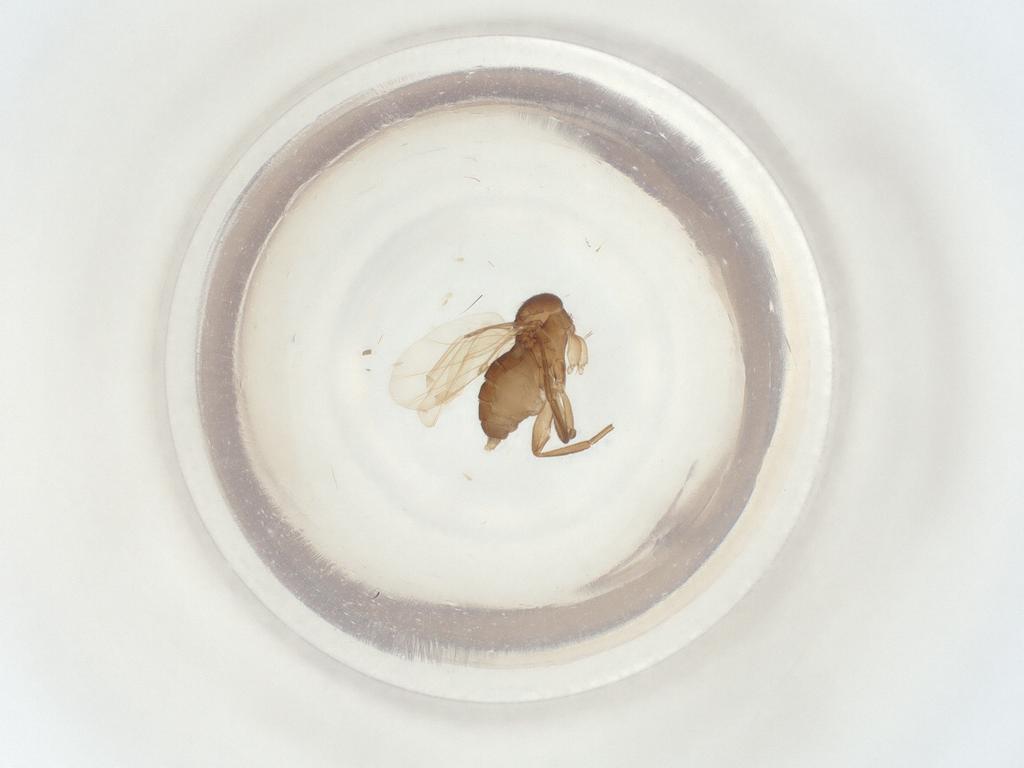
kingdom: Animalia
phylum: Arthropoda
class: Insecta
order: Diptera
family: Phoridae
